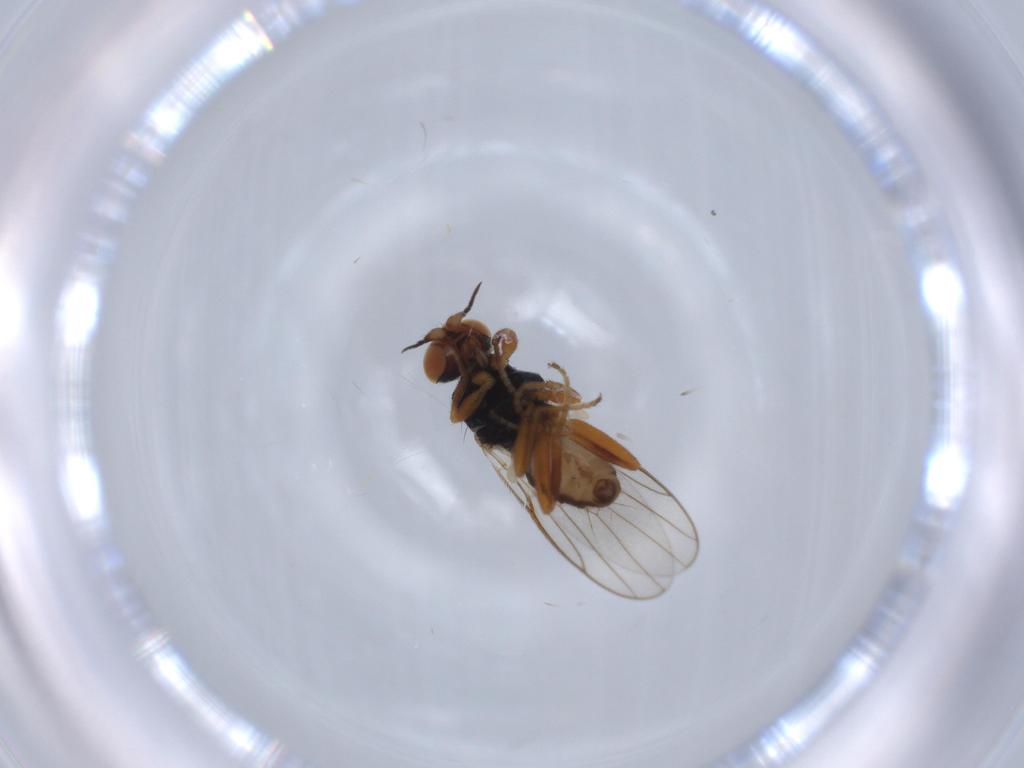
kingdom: Animalia
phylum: Arthropoda
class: Insecta
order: Diptera
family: Chloropidae
